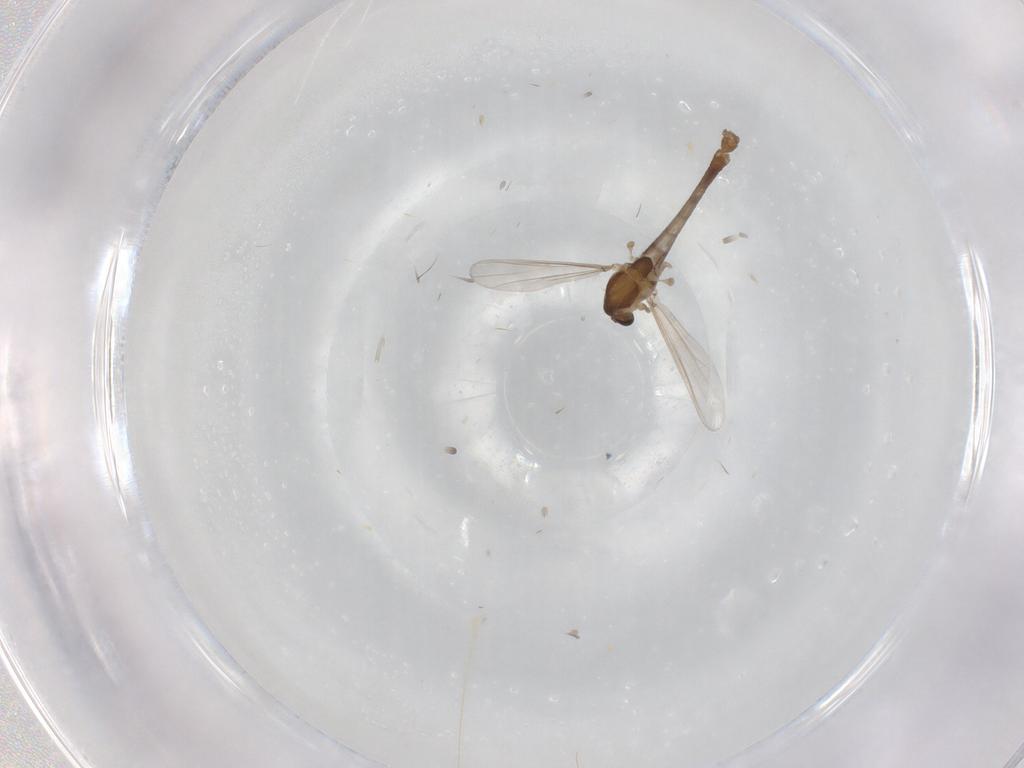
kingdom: Animalia
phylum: Arthropoda
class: Insecta
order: Diptera
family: Chironomidae
